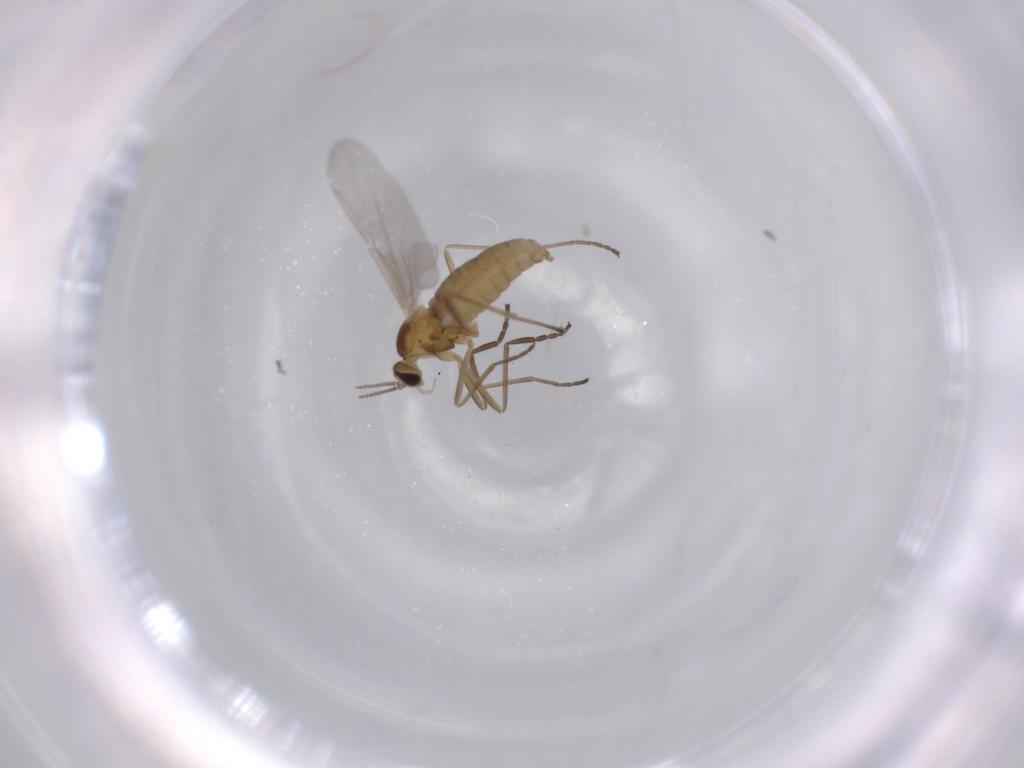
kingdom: Animalia
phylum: Arthropoda
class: Insecta
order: Diptera
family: Cecidomyiidae
